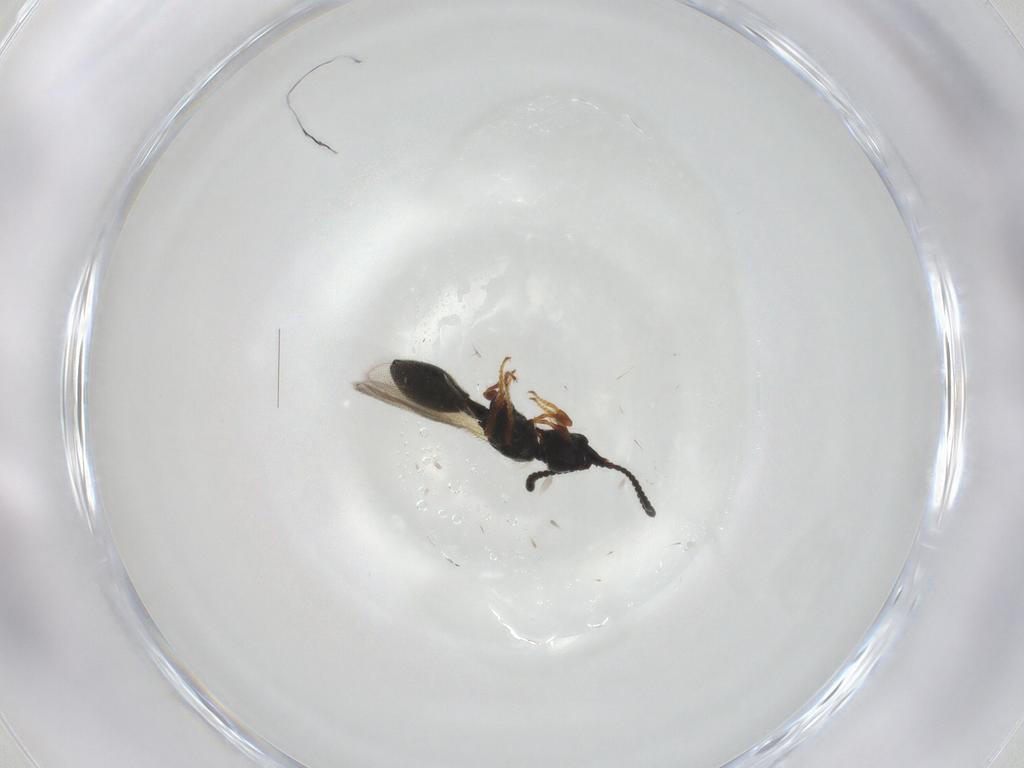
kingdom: Animalia
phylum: Arthropoda
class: Insecta
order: Hymenoptera
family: Diapriidae
